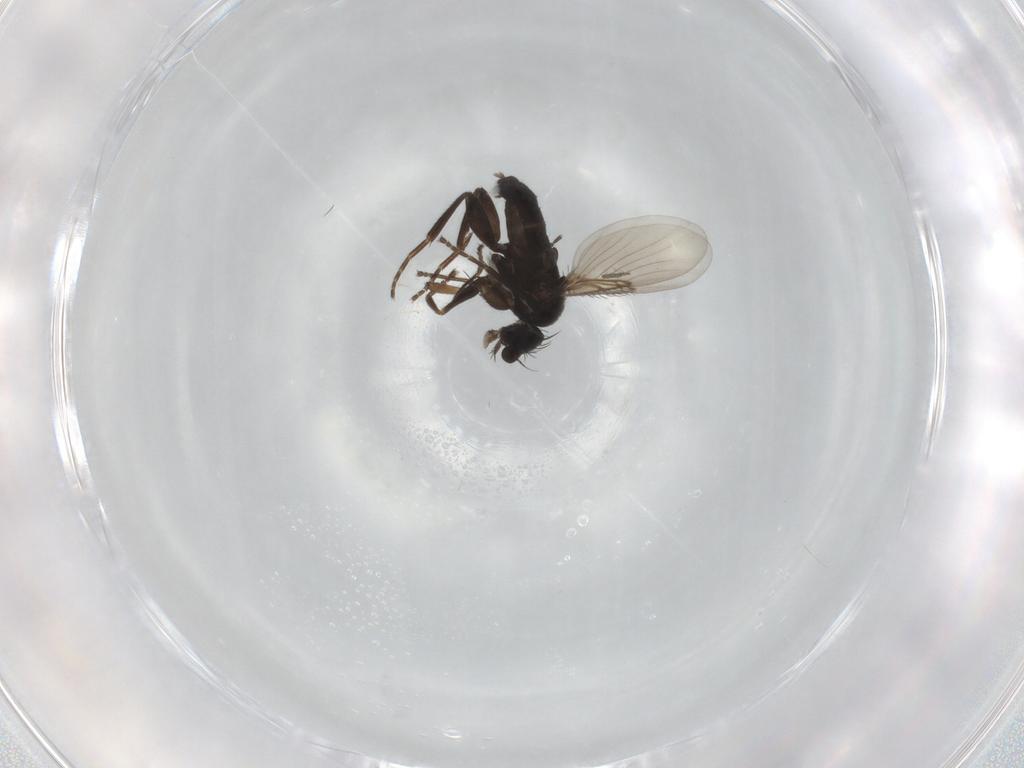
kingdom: Animalia
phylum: Arthropoda
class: Insecta
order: Diptera
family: Phoridae
